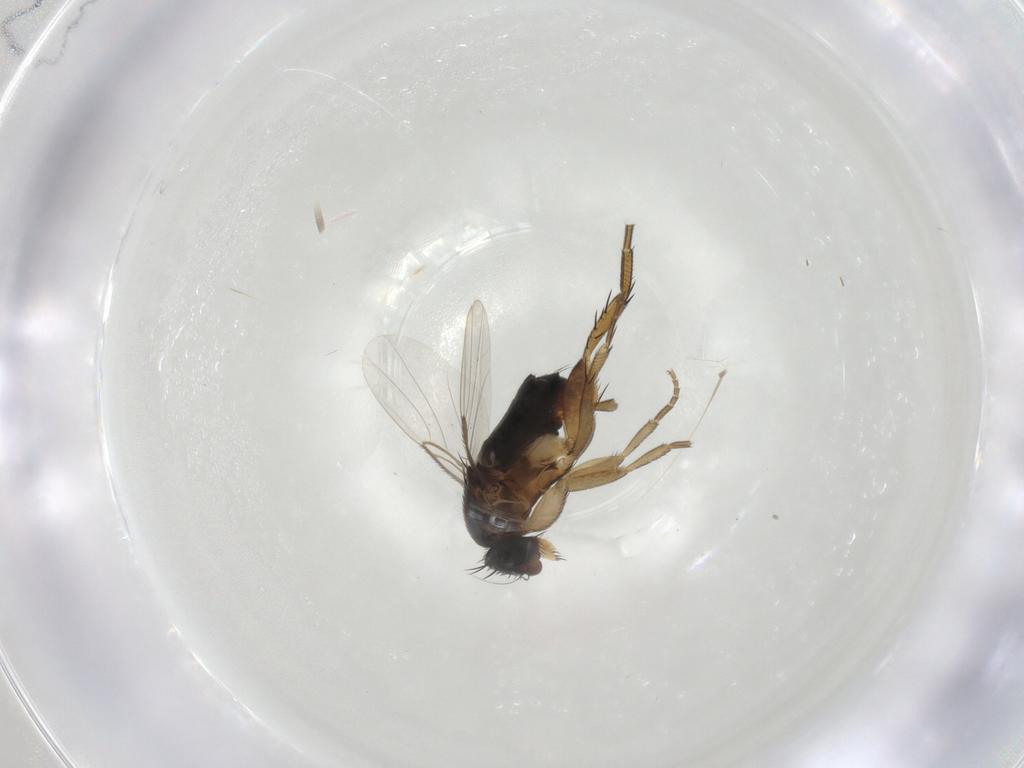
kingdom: Animalia
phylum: Arthropoda
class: Insecta
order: Diptera
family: Phoridae
